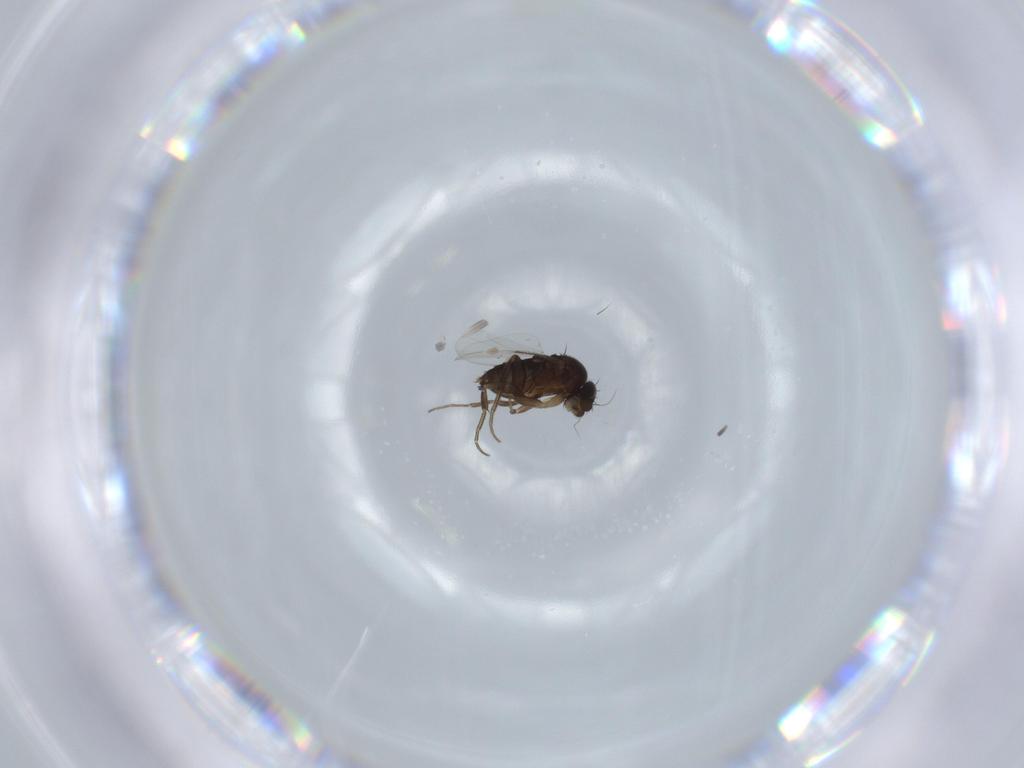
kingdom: Animalia
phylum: Arthropoda
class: Insecta
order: Diptera
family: Phoridae
